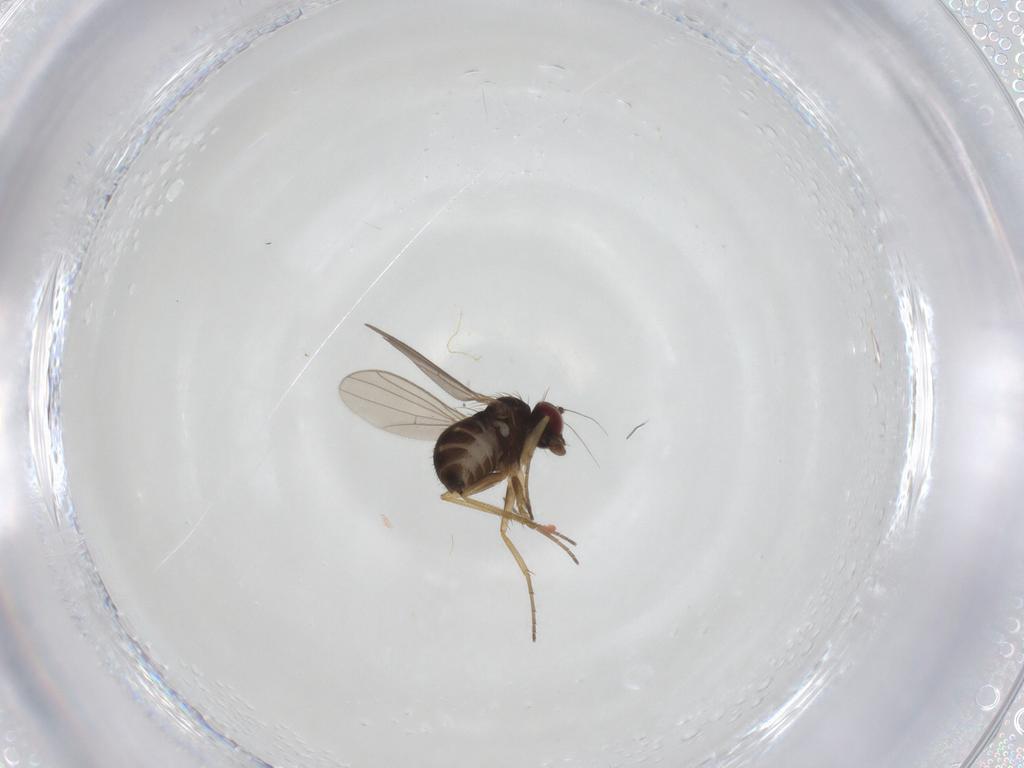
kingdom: Animalia
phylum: Arthropoda
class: Insecta
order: Diptera
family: Dolichopodidae
